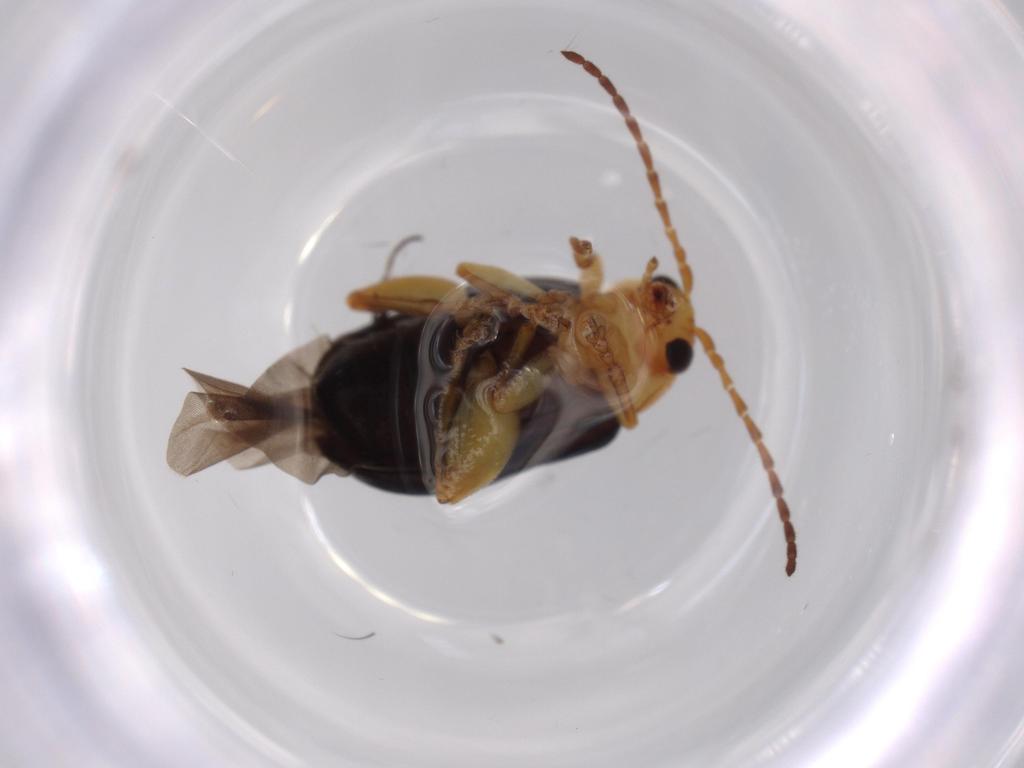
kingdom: Animalia
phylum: Arthropoda
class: Insecta
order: Coleoptera
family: Chrysomelidae
